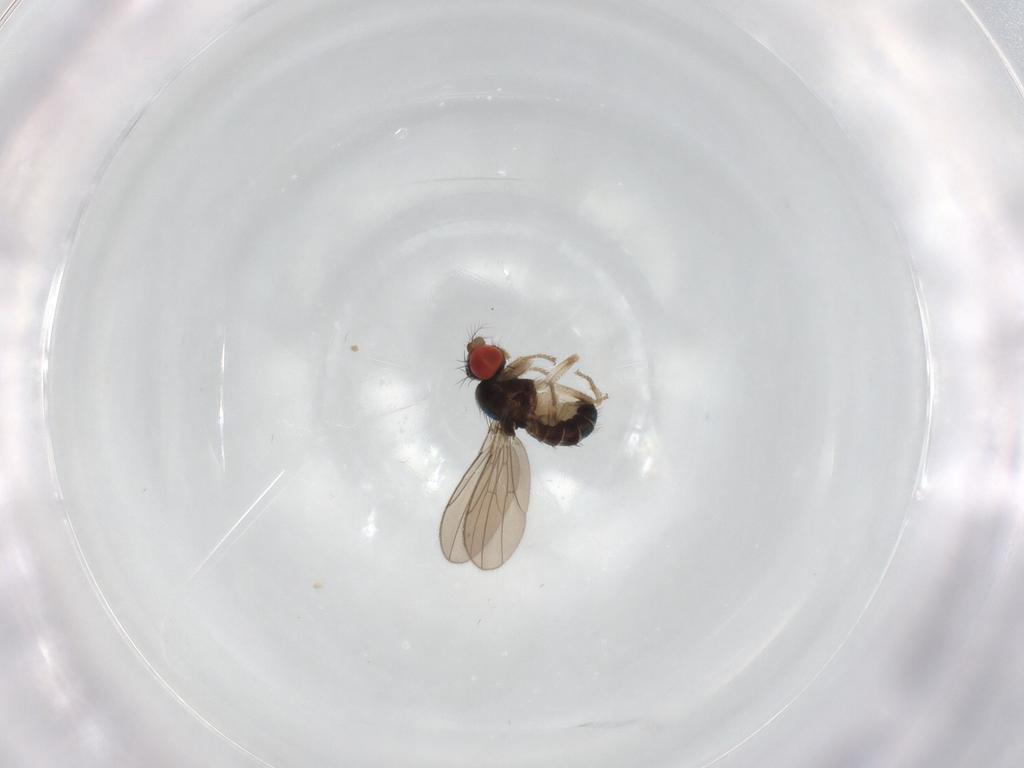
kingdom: Animalia
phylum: Arthropoda
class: Insecta
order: Diptera
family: Drosophilidae
